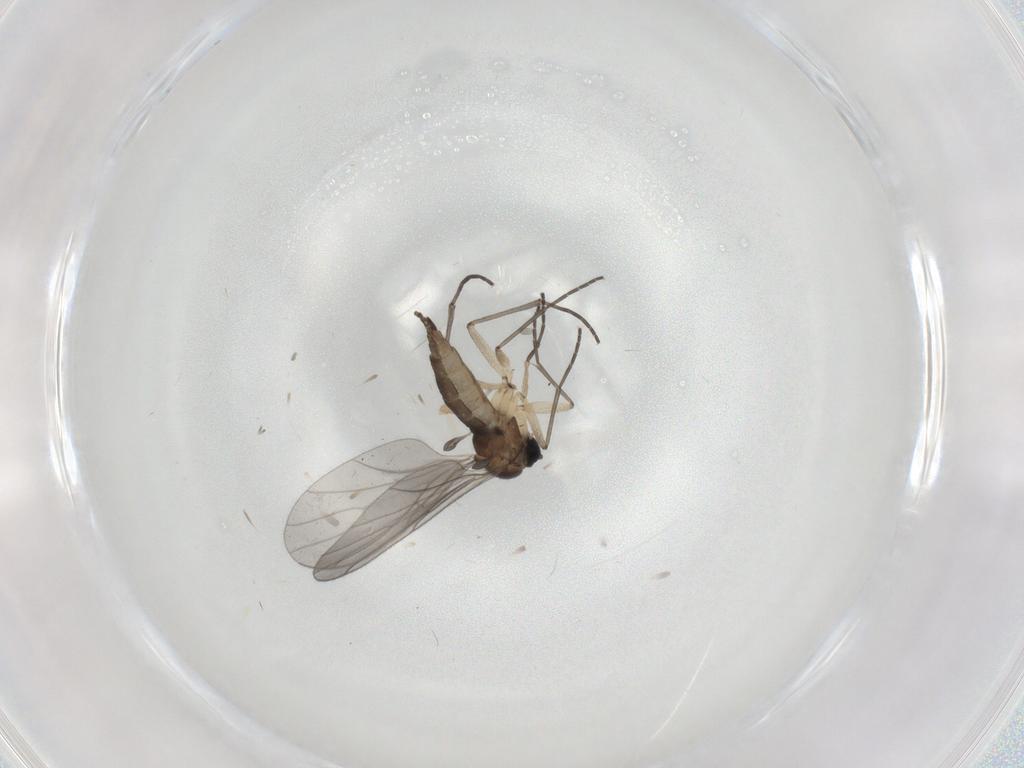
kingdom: Animalia
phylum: Arthropoda
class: Insecta
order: Diptera
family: Sciaridae
